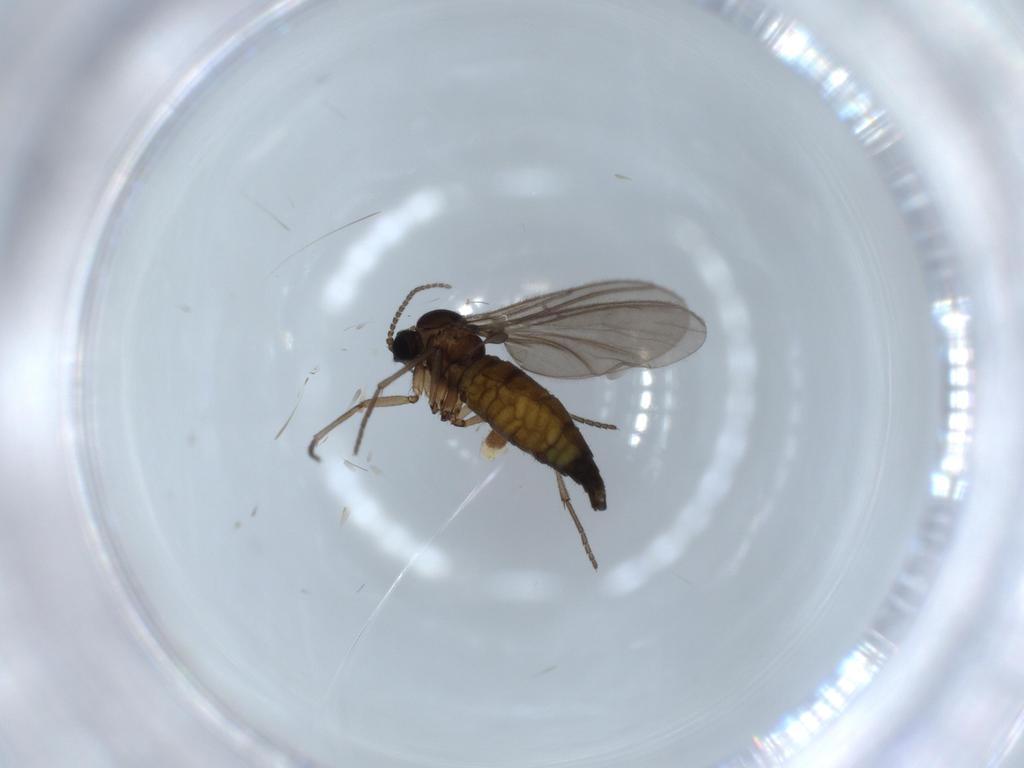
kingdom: Animalia
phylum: Arthropoda
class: Insecta
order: Diptera
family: Sciaridae
